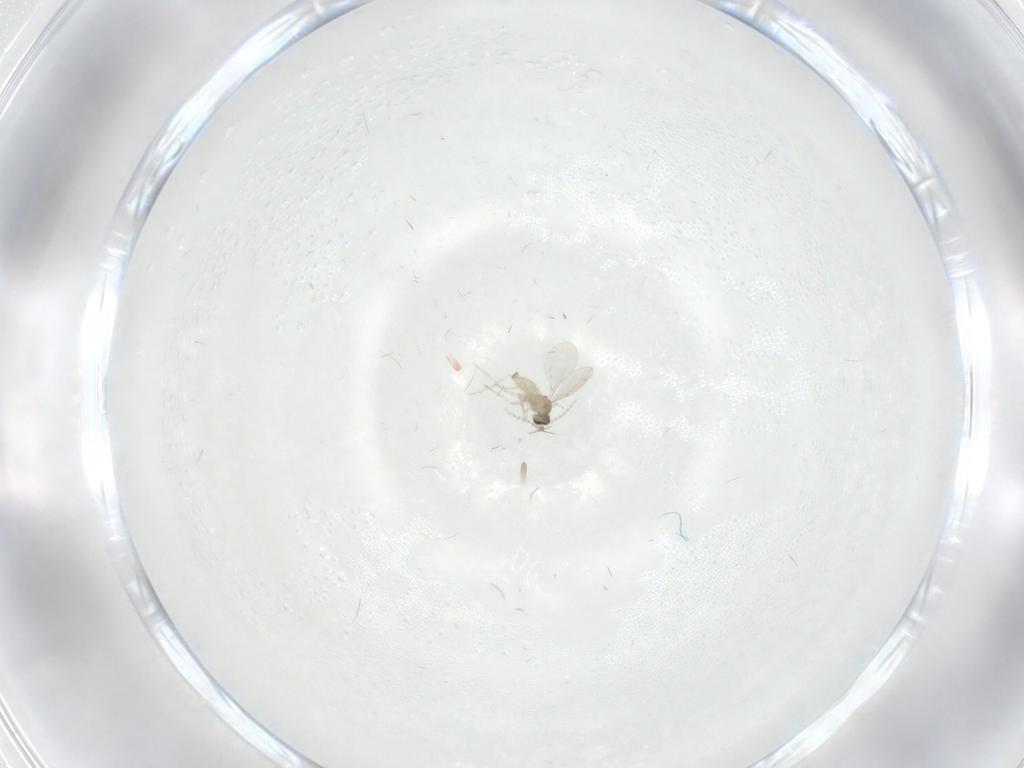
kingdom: Animalia
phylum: Arthropoda
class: Insecta
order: Diptera
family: Cecidomyiidae
